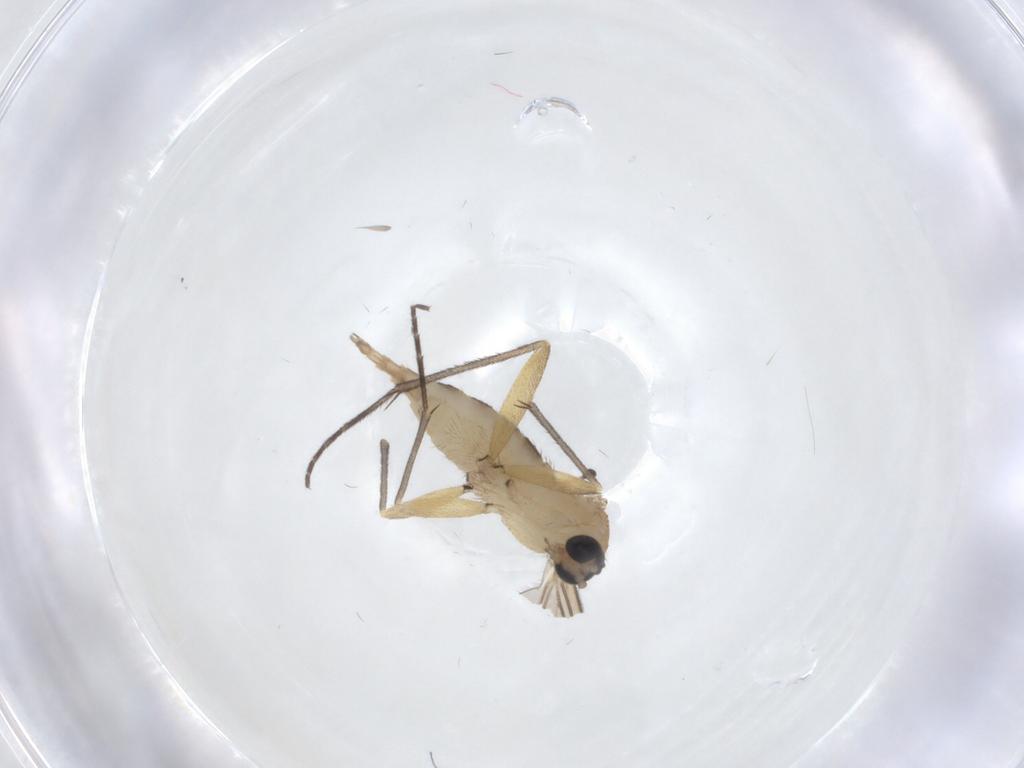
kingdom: Animalia
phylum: Arthropoda
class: Insecta
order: Diptera
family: Sciaridae
